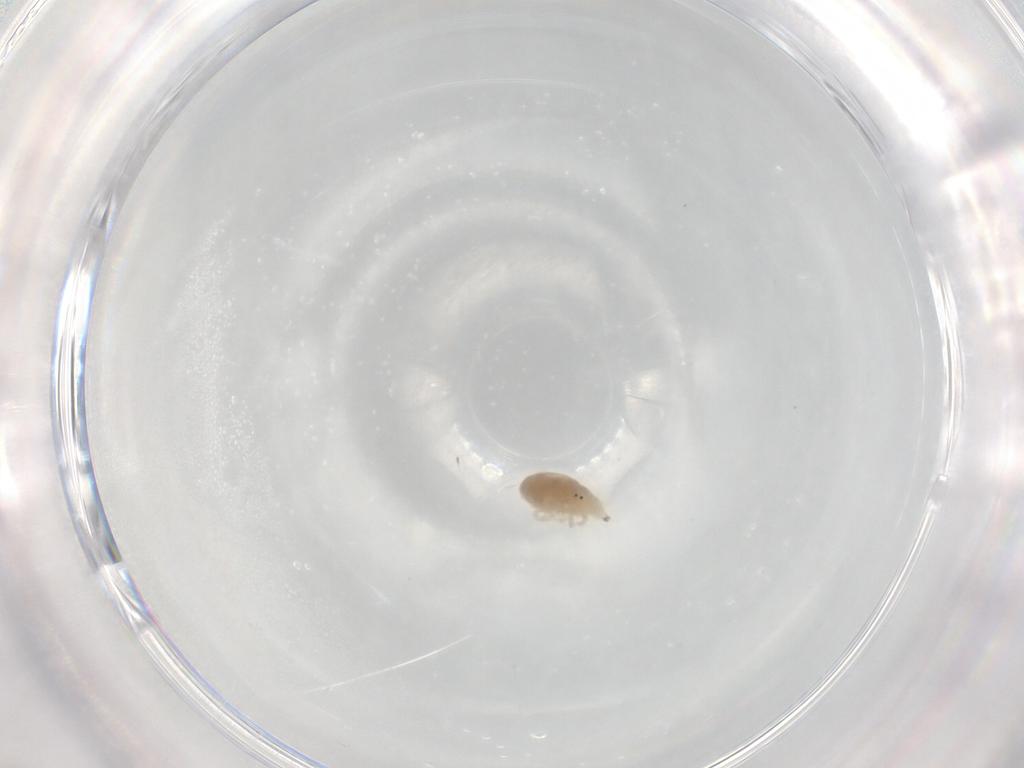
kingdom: Animalia
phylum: Arthropoda
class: Arachnida
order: Trombidiformes
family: Bdellidae
